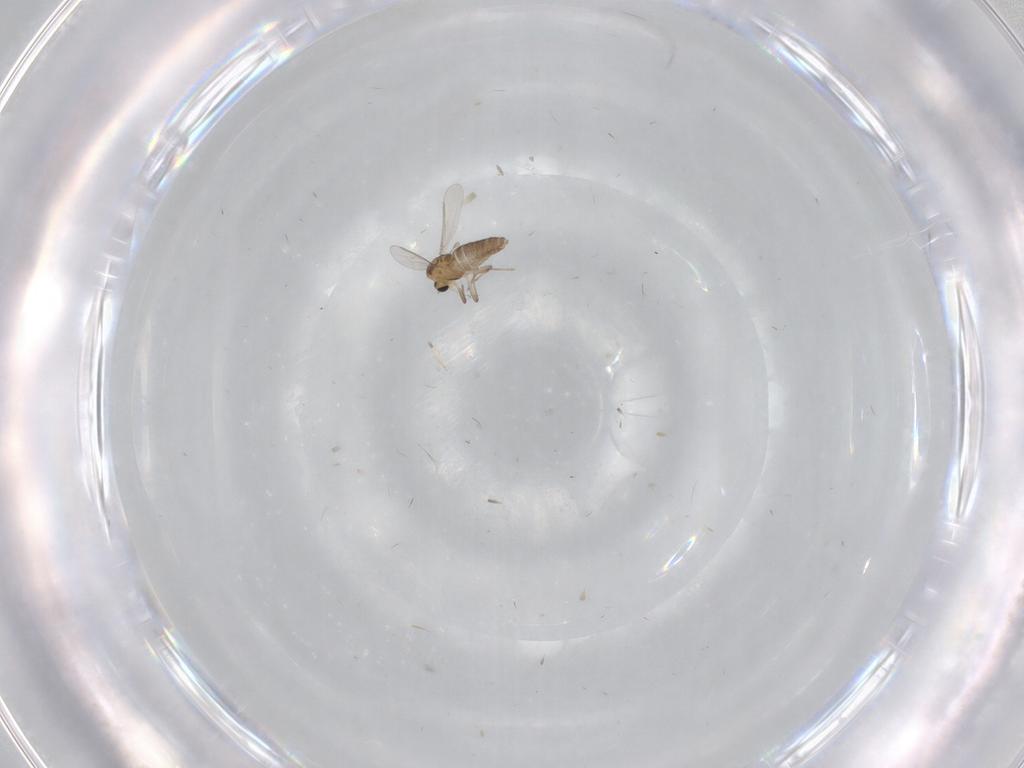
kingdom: Animalia
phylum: Arthropoda
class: Insecta
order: Diptera
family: Chironomidae
